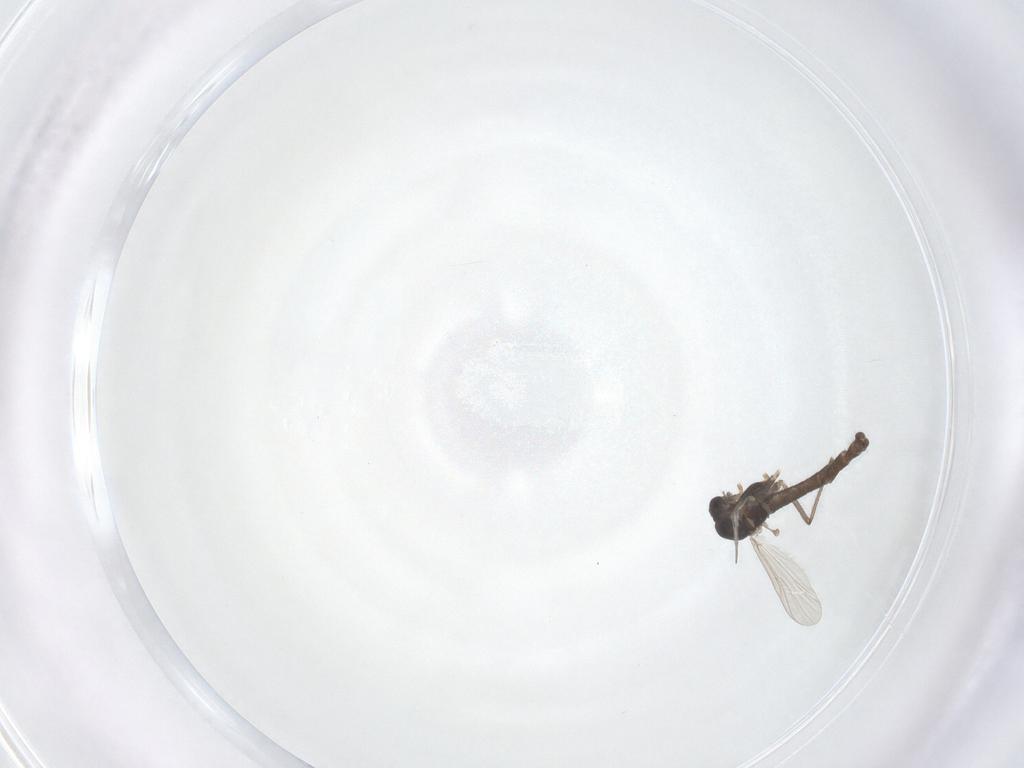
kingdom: Animalia
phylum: Arthropoda
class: Insecta
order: Diptera
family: Chironomidae
